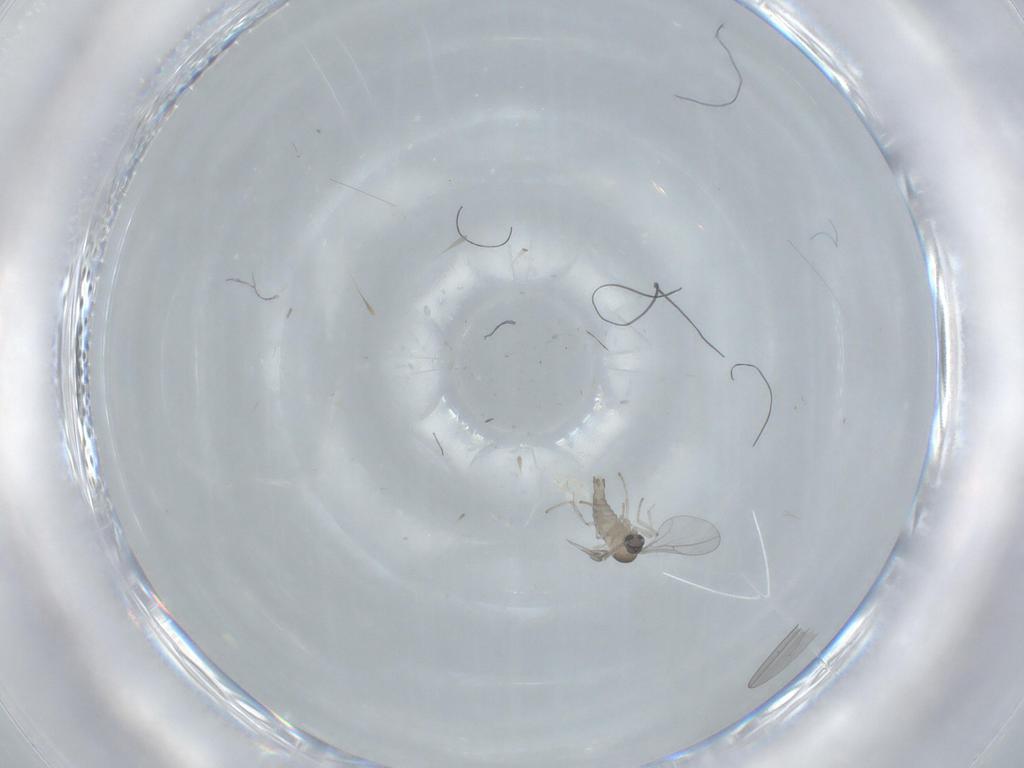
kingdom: Animalia
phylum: Arthropoda
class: Insecta
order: Diptera
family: Cecidomyiidae
